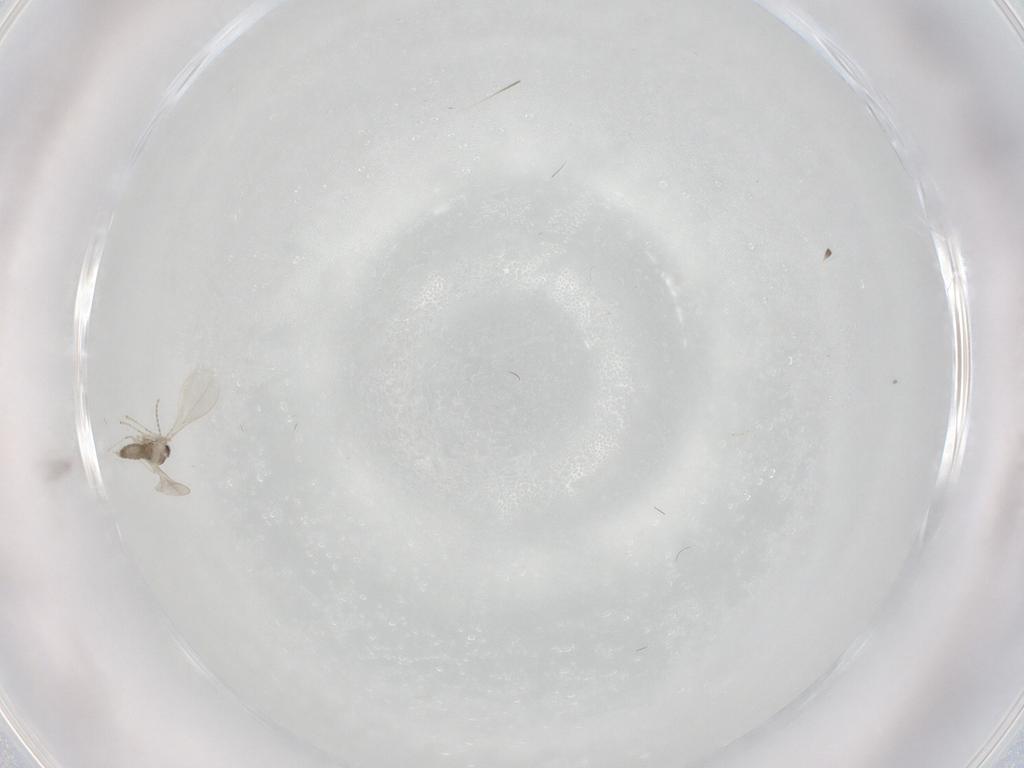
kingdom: Animalia
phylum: Arthropoda
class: Insecta
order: Diptera
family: Cecidomyiidae
